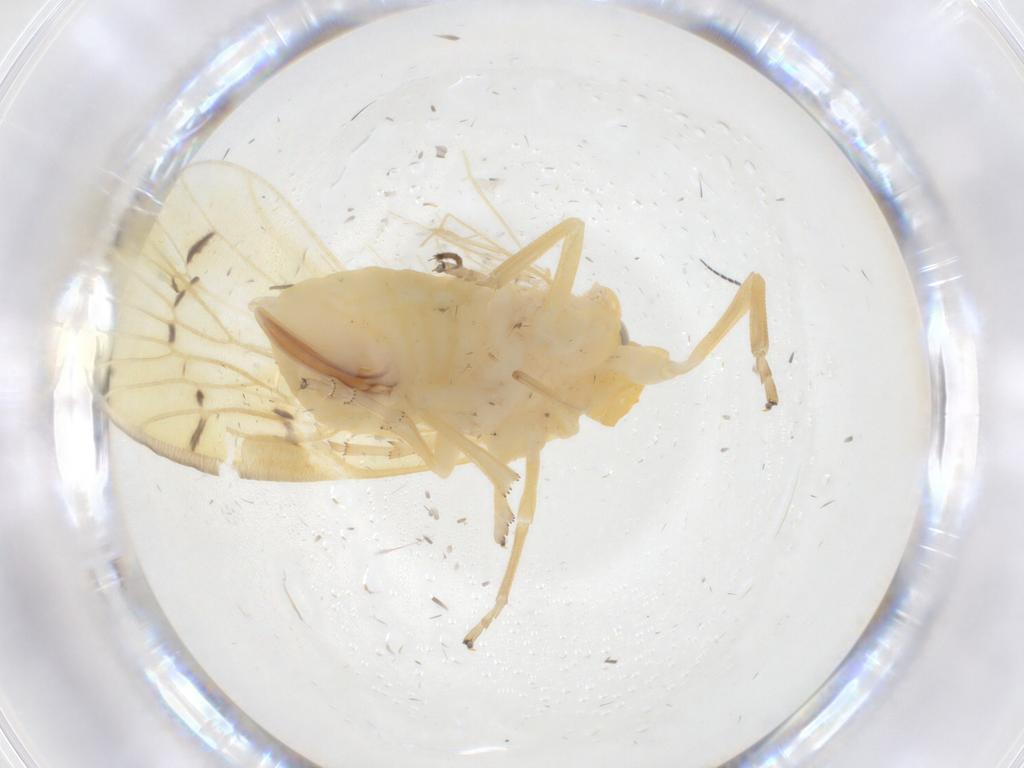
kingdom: Animalia
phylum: Arthropoda
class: Insecta
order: Hemiptera
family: Cixiidae
